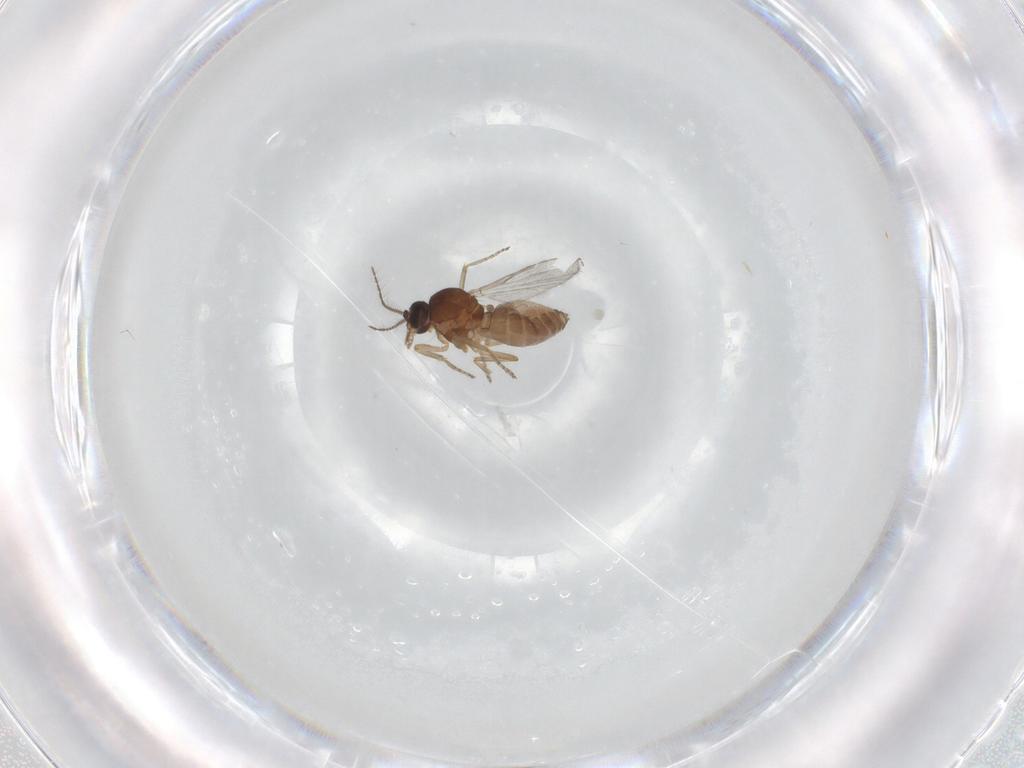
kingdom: Animalia
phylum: Arthropoda
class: Insecta
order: Diptera
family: Ceratopogonidae
